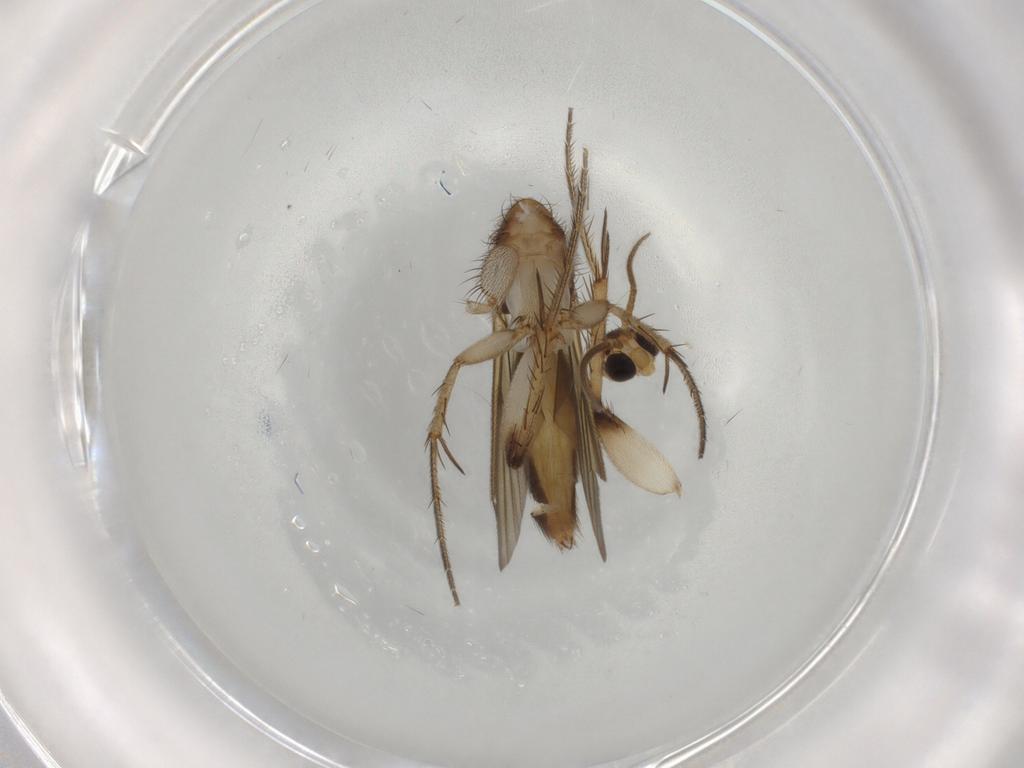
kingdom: Animalia
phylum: Arthropoda
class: Insecta
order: Diptera
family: Mycetophilidae
